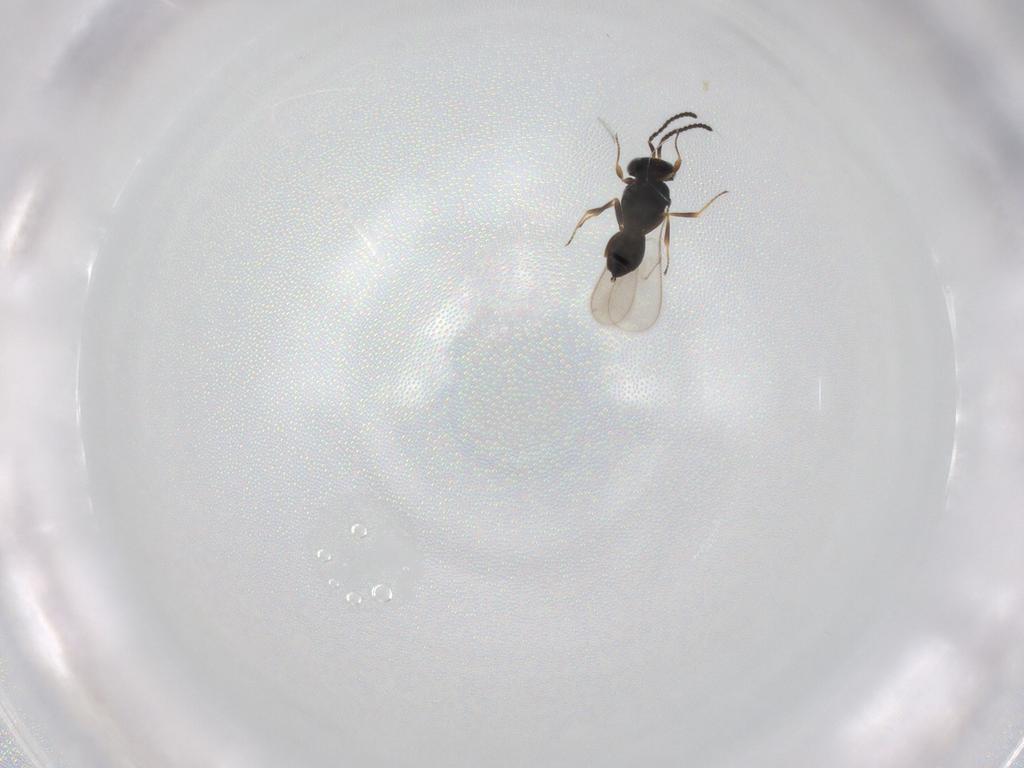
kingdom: Animalia
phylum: Arthropoda
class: Insecta
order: Hymenoptera
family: Scelionidae
